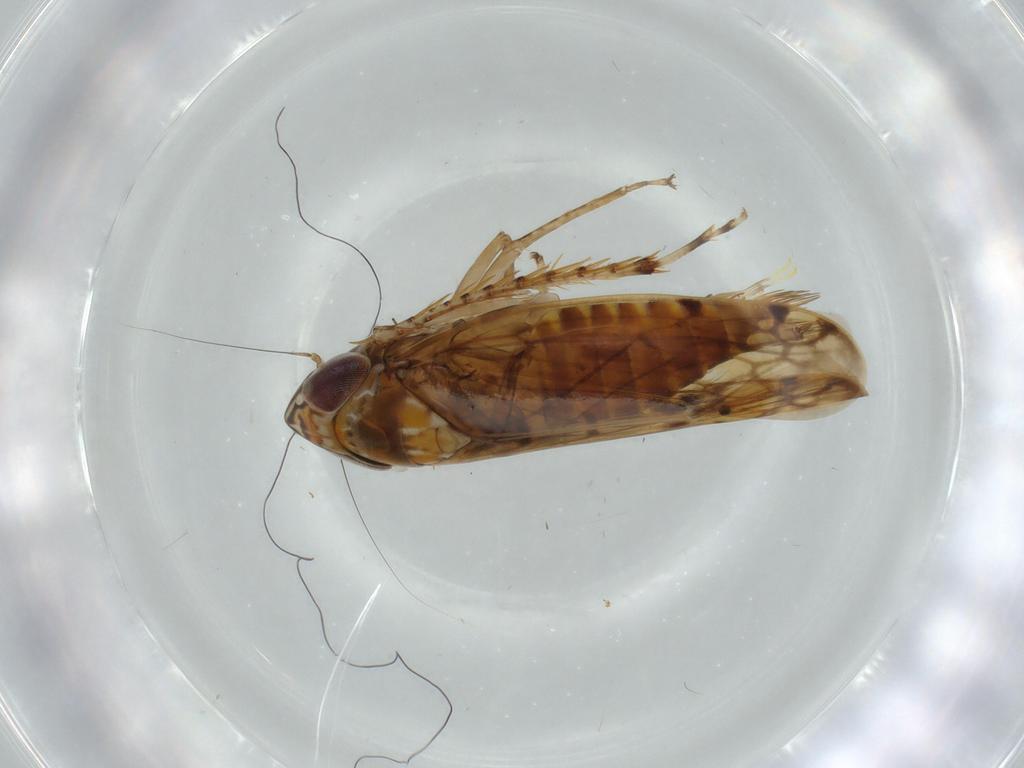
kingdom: Animalia
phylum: Arthropoda
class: Insecta
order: Hemiptera
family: Cicadellidae
